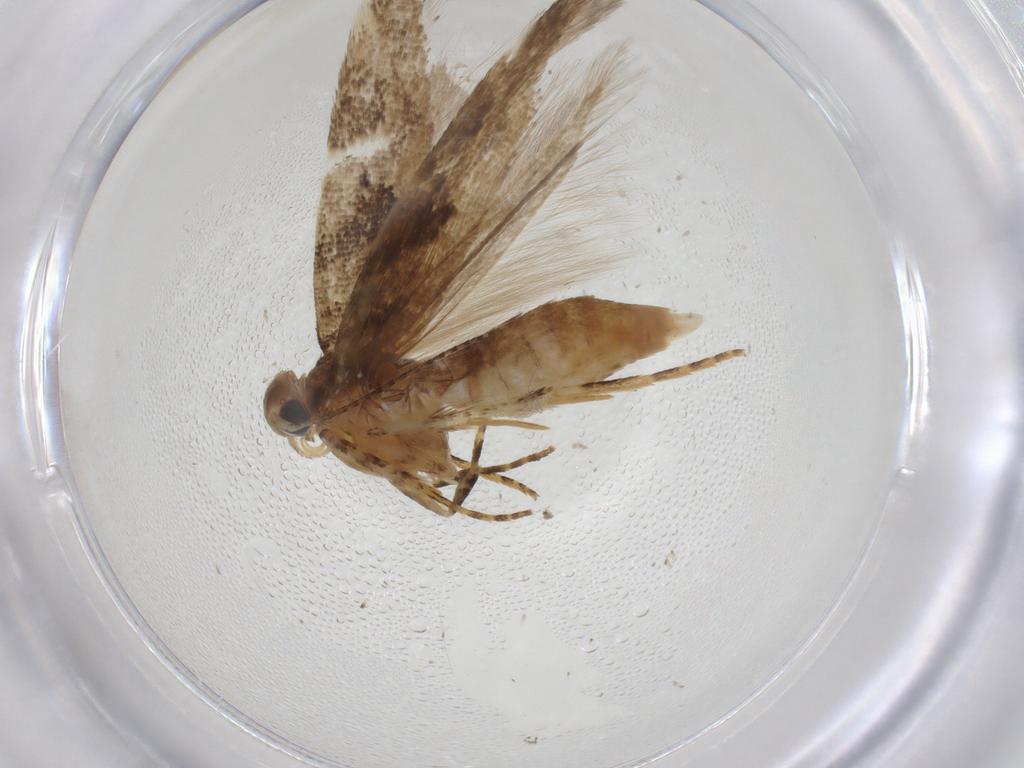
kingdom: Animalia
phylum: Arthropoda
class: Insecta
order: Lepidoptera
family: Gelechiidae
